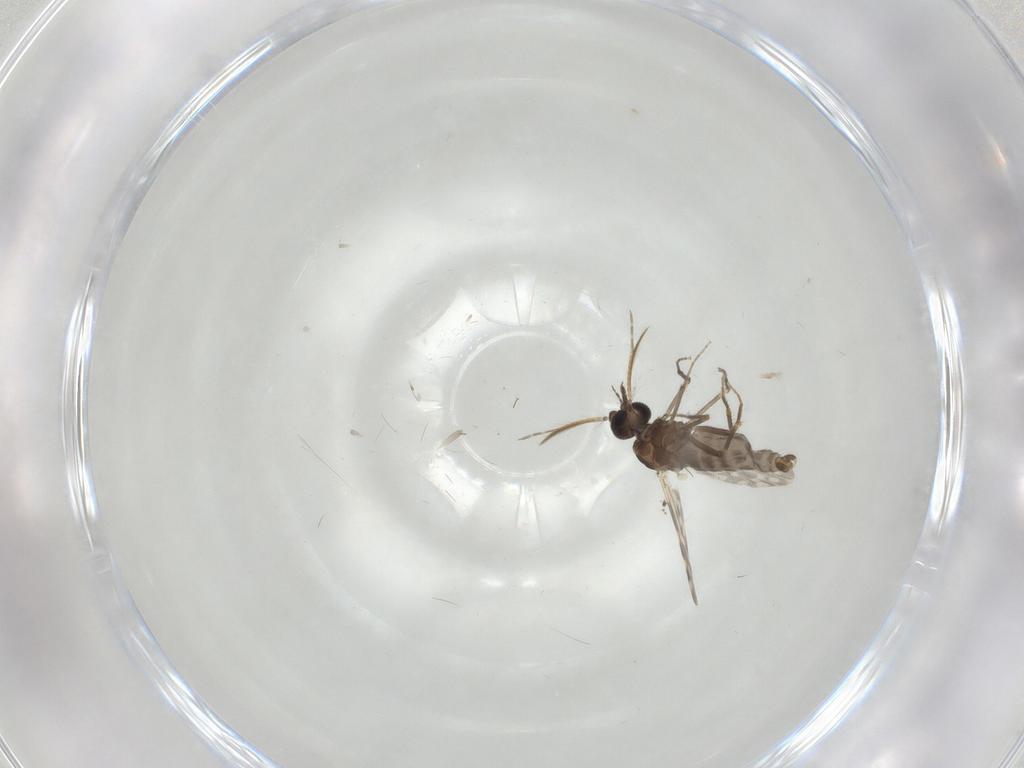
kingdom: Animalia
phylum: Arthropoda
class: Insecta
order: Diptera
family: Ceratopogonidae
